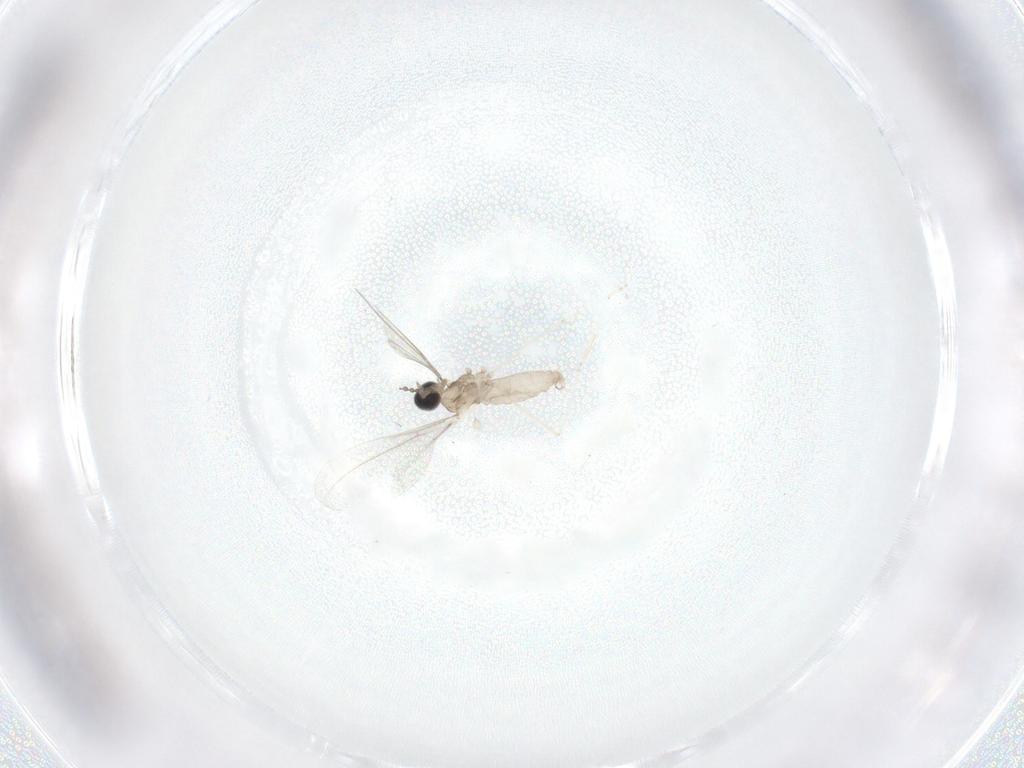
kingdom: Animalia
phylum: Arthropoda
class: Insecta
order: Diptera
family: Cecidomyiidae
